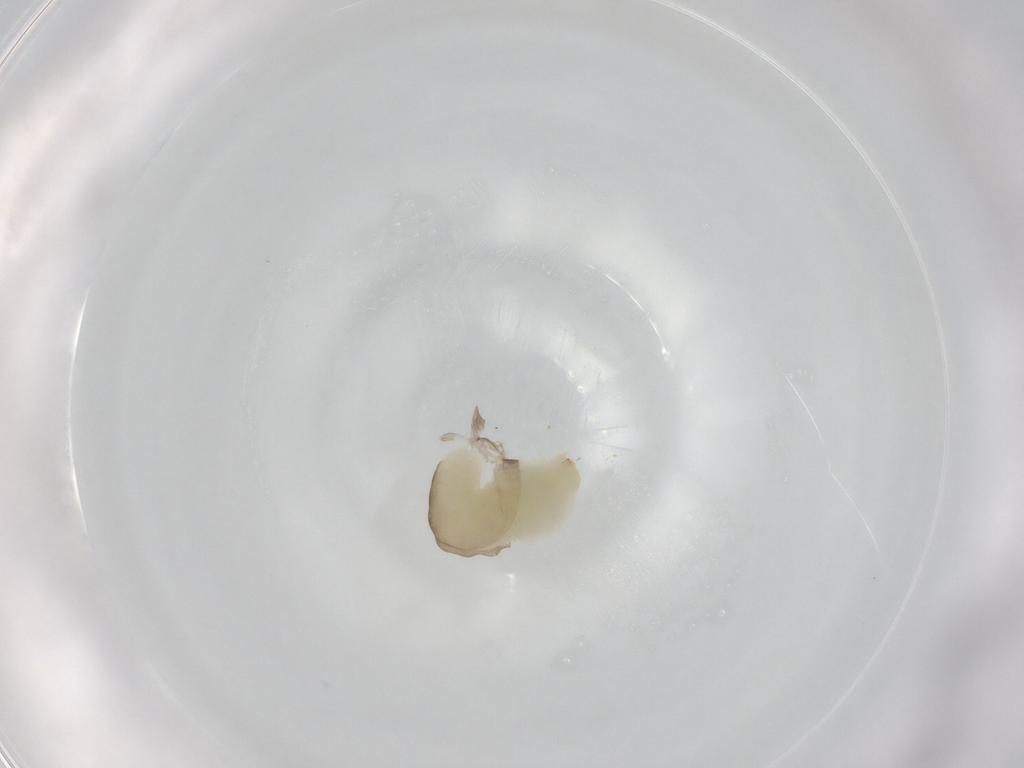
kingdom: Animalia
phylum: Arthropoda
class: Insecta
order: Hymenoptera
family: Dryinidae
